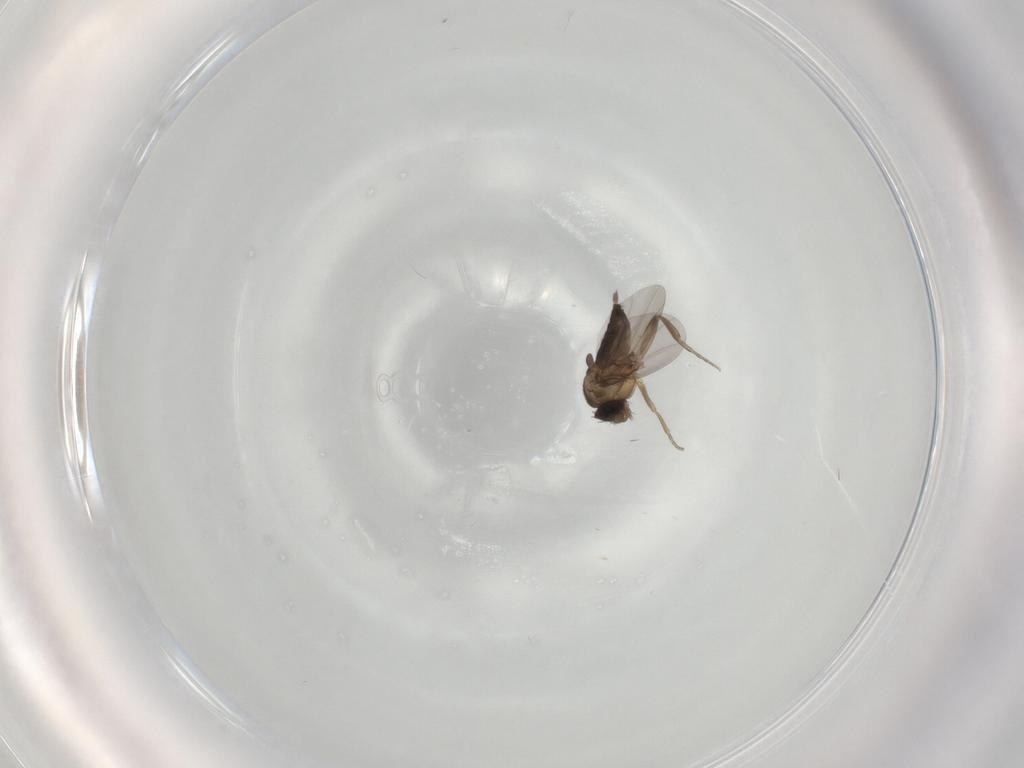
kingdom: Animalia
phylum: Arthropoda
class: Insecta
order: Diptera
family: Phoridae
